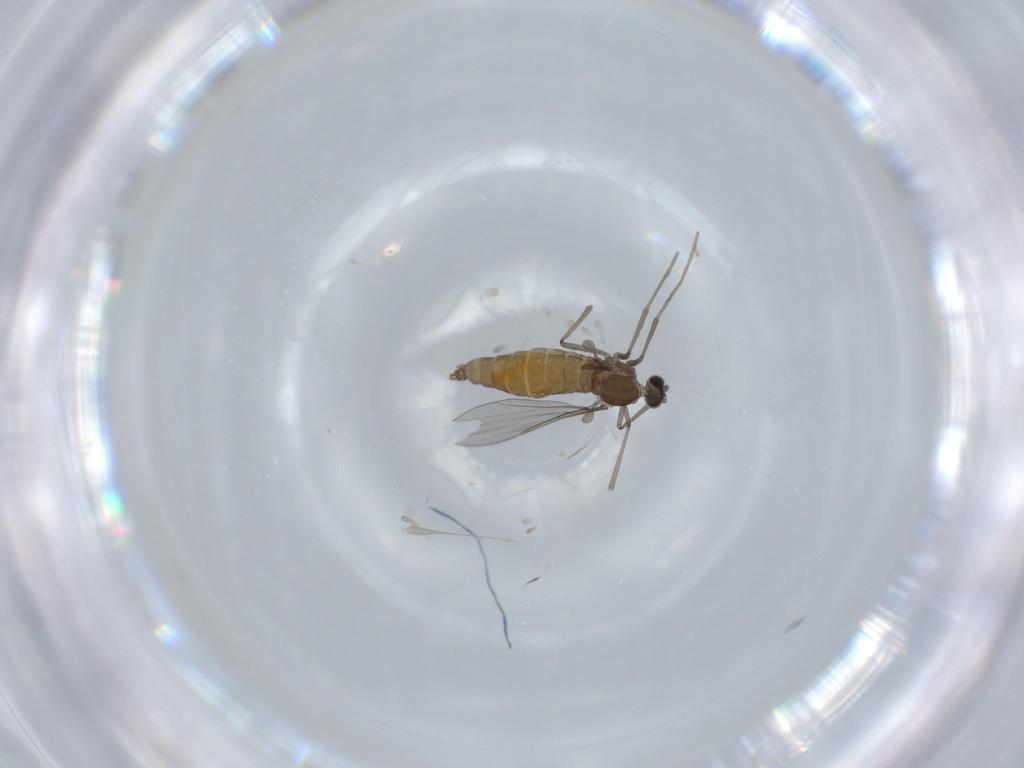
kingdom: Animalia
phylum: Arthropoda
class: Insecta
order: Diptera
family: Cecidomyiidae
